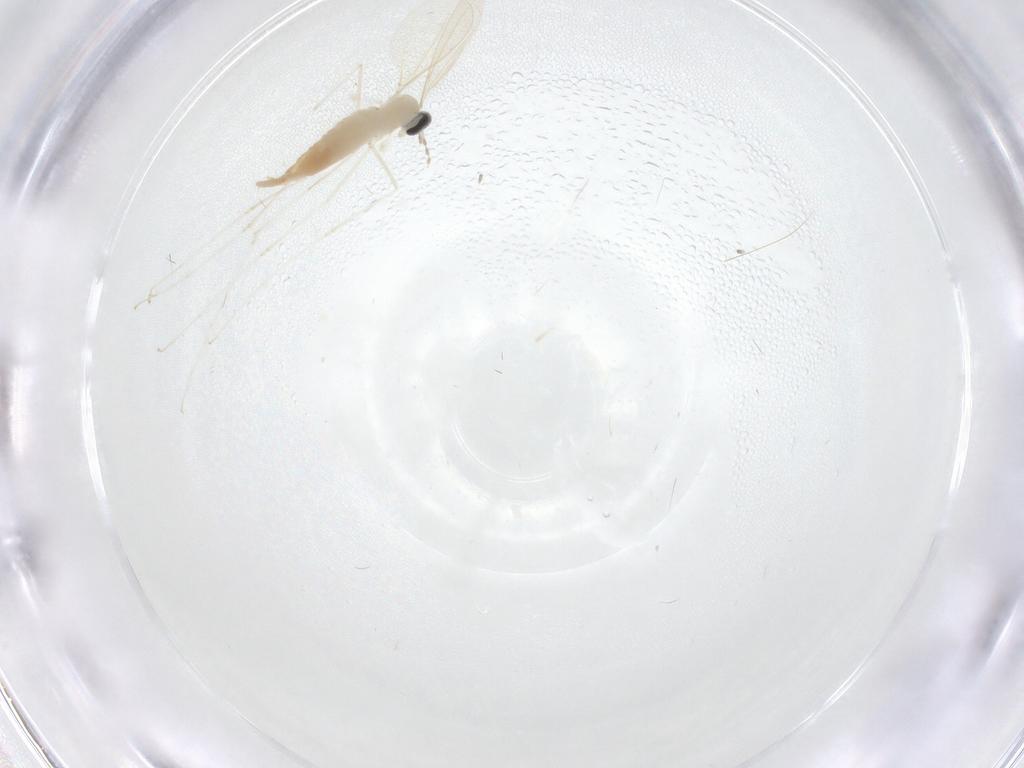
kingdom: Animalia
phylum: Arthropoda
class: Insecta
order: Diptera
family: Cecidomyiidae
